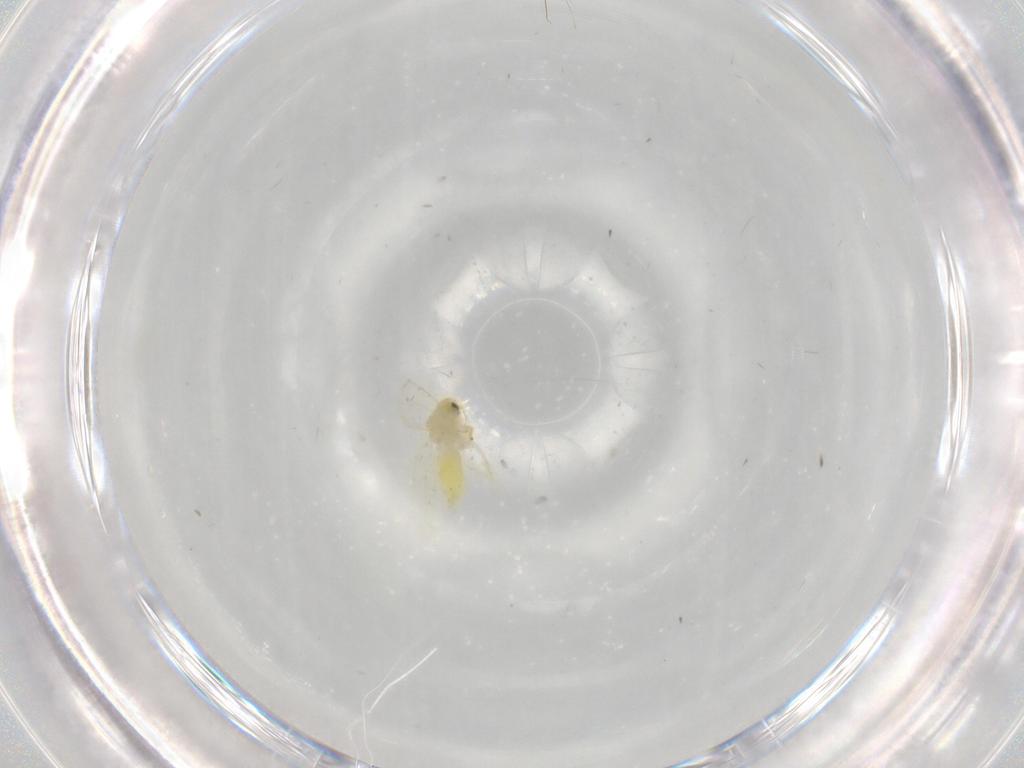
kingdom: Animalia
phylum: Arthropoda
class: Insecta
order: Hemiptera
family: Aleyrodidae
